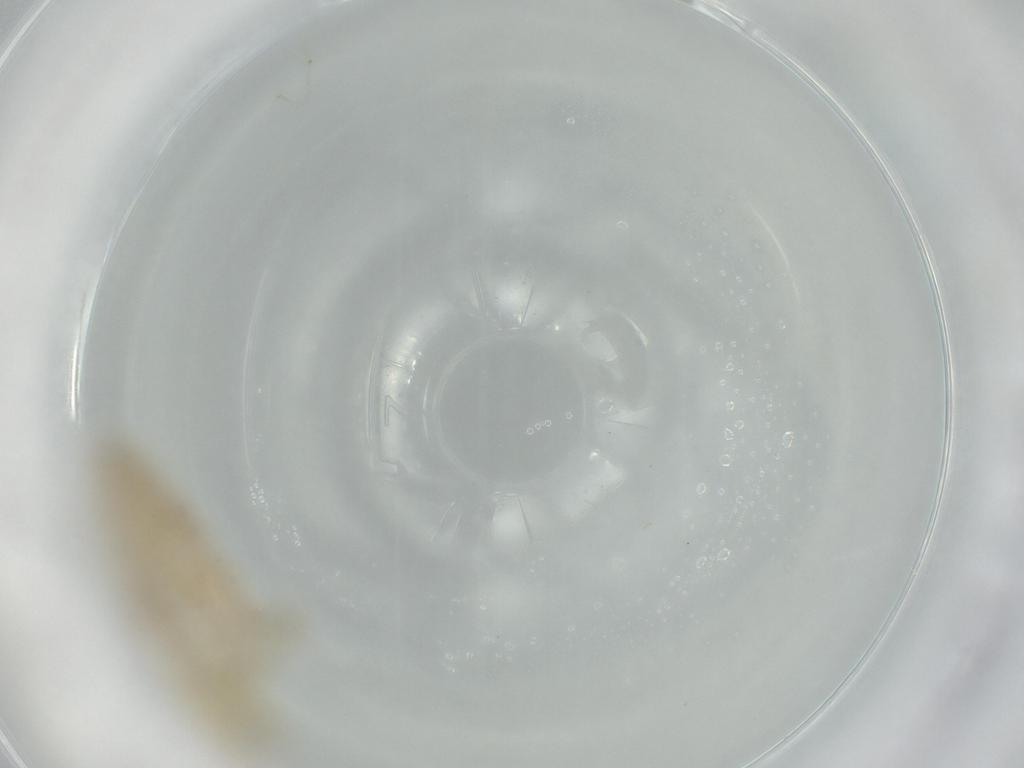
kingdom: Animalia
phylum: Arthropoda
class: Insecta
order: Diptera
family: Chironomidae
